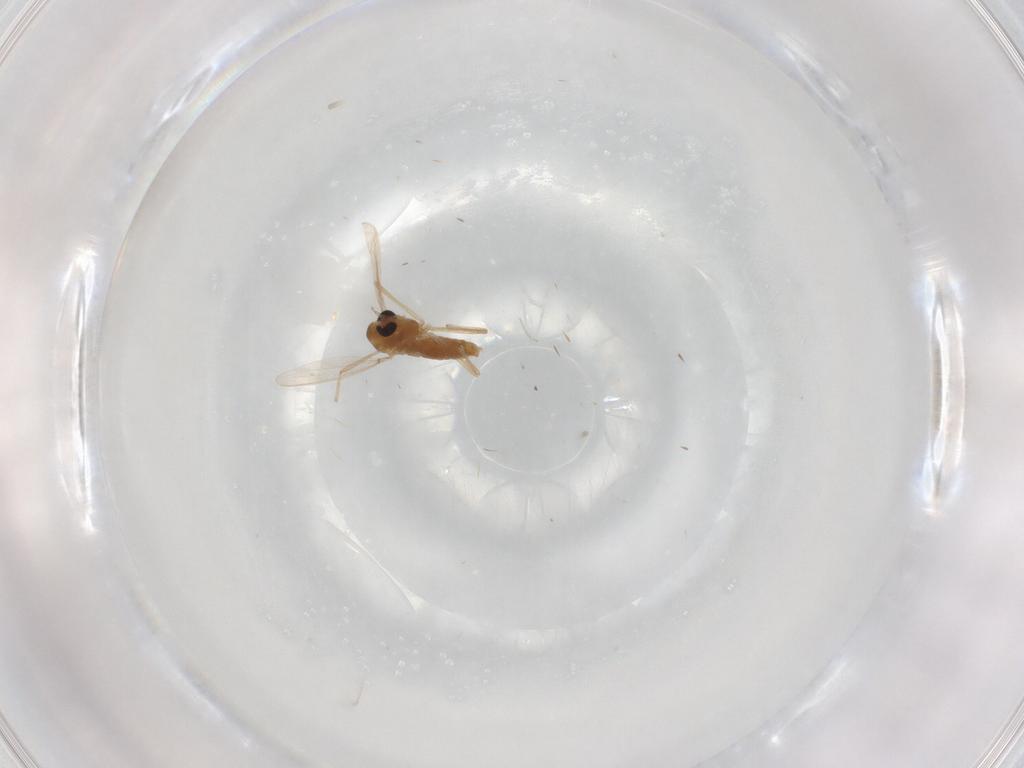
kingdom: Animalia
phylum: Arthropoda
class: Insecta
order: Diptera
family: Chironomidae
